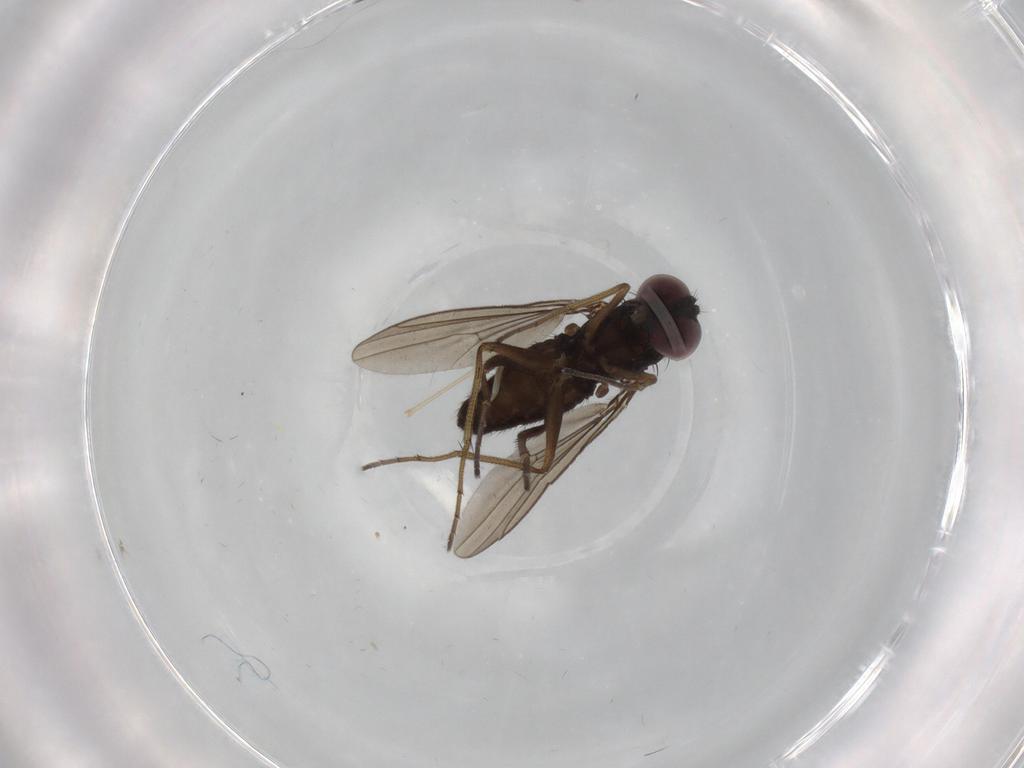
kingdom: Animalia
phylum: Arthropoda
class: Insecta
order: Diptera
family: Dolichopodidae
